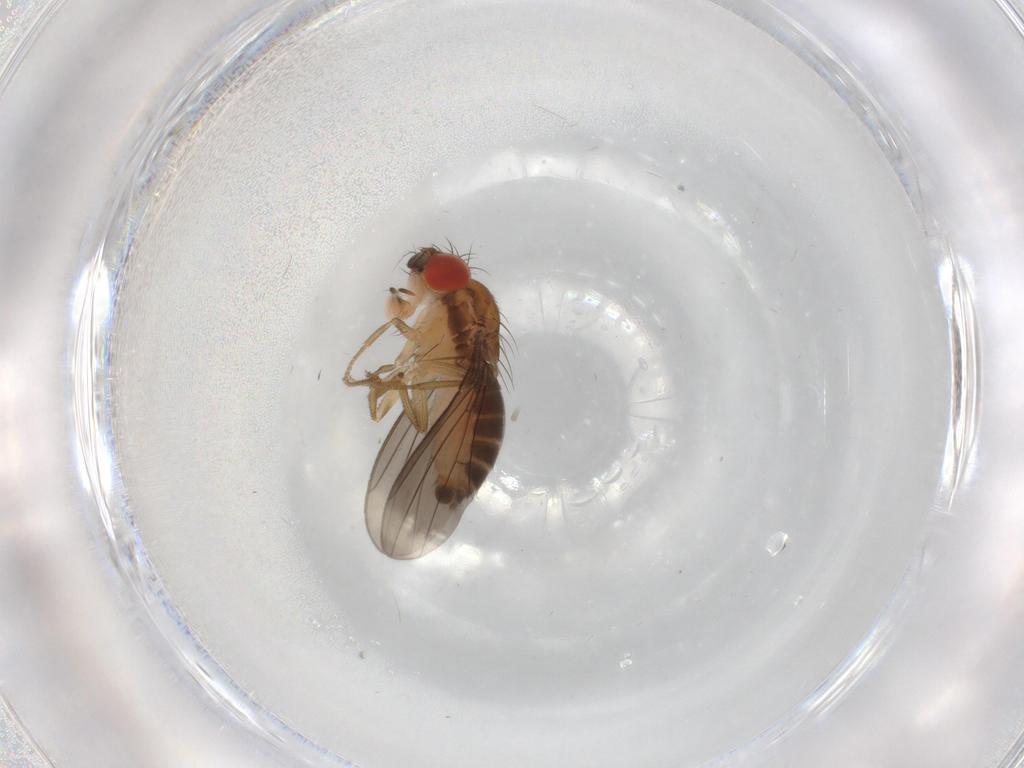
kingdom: Animalia
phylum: Arthropoda
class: Insecta
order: Diptera
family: Drosophilidae
